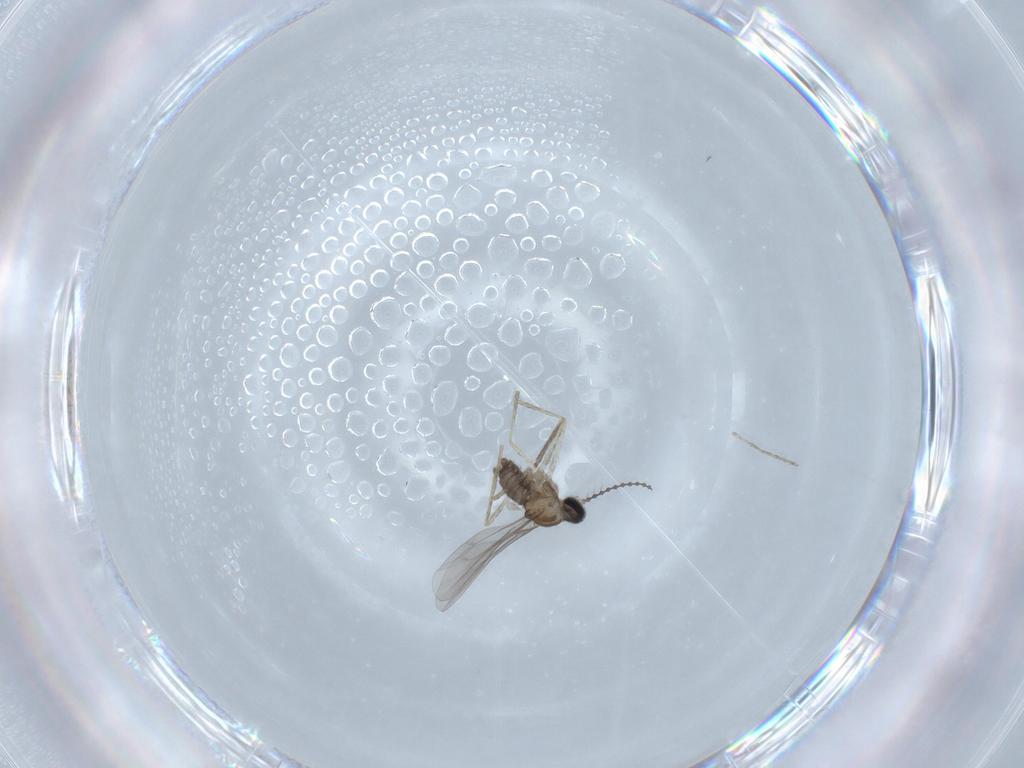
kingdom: Animalia
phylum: Arthropoda
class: Insecta
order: Diptera
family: Cecidomyiidae
